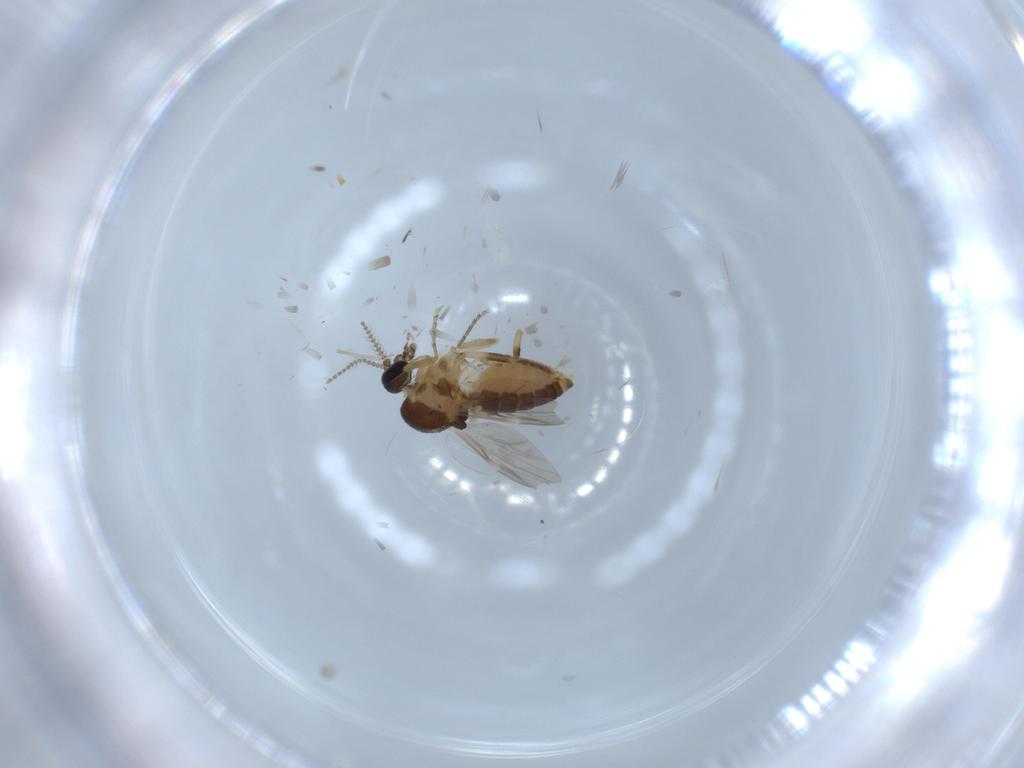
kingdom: Animalia
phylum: Arthropoda
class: Insecta
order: Diptera
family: Ceratopogonidae
